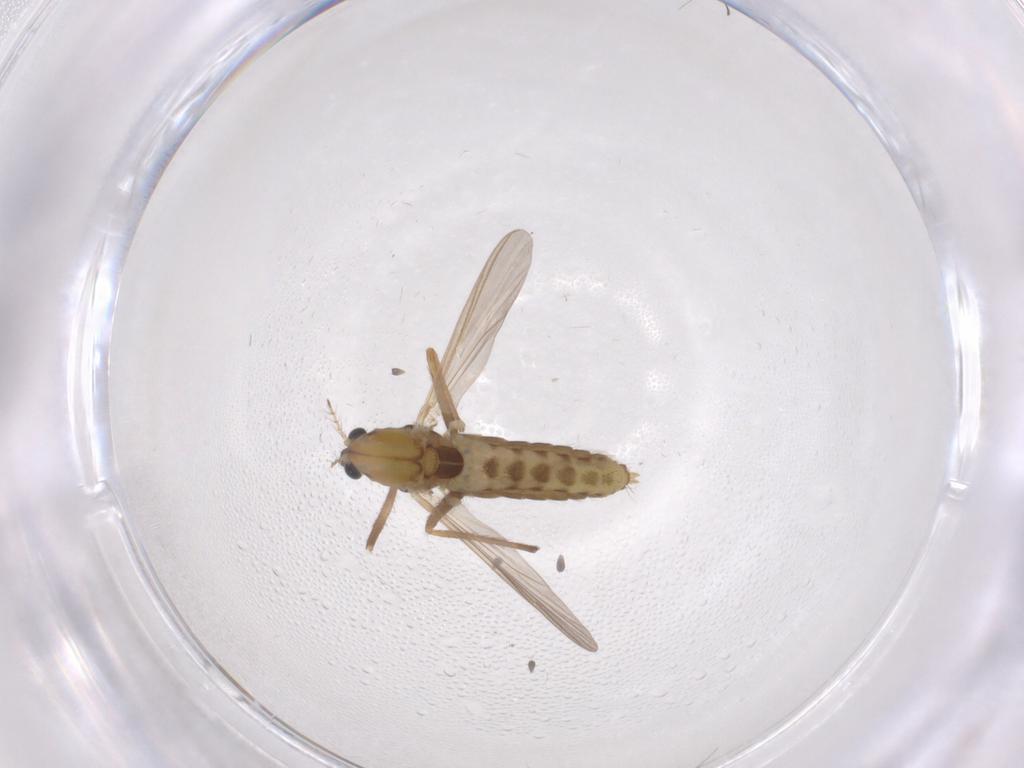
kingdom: Animalia
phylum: Arthropoda
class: Insecta
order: Diptera
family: Chironomidae
